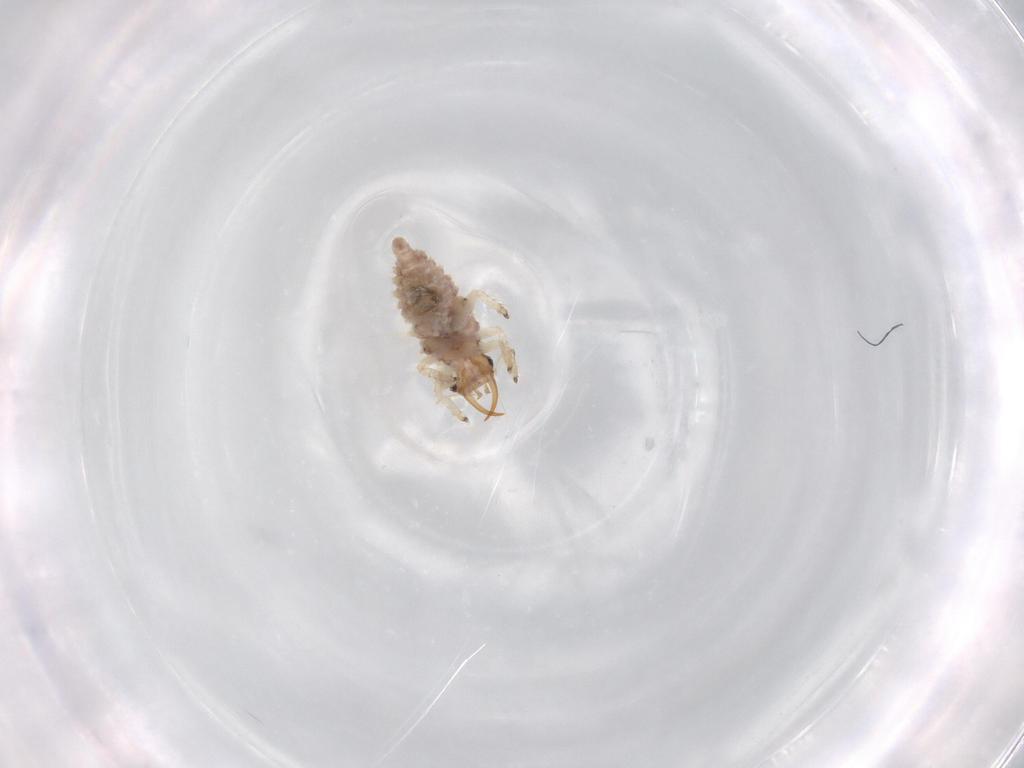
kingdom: Animalia
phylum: Arthropoda
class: Insecta
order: Neuroptera
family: Chrysopidae
